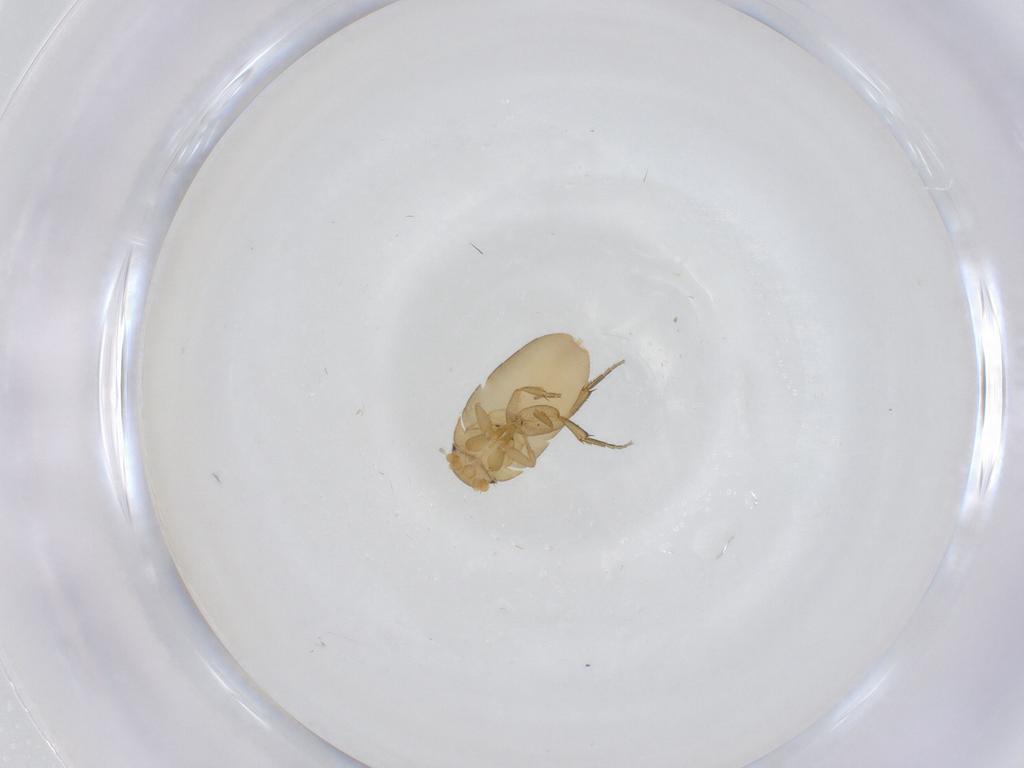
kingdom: Animalia
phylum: Arthropoda
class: Insecta
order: Diptera
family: Phoridae
